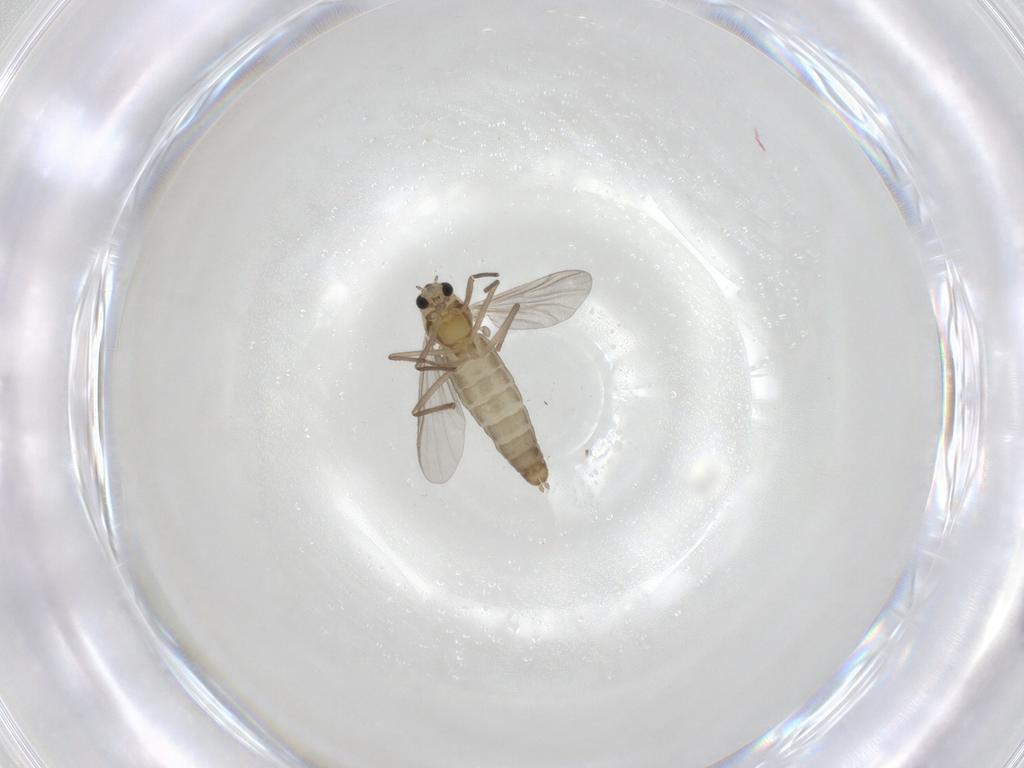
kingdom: Animalia
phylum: Arthropoda
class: Insecta
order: Diptera
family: Chironomidae
